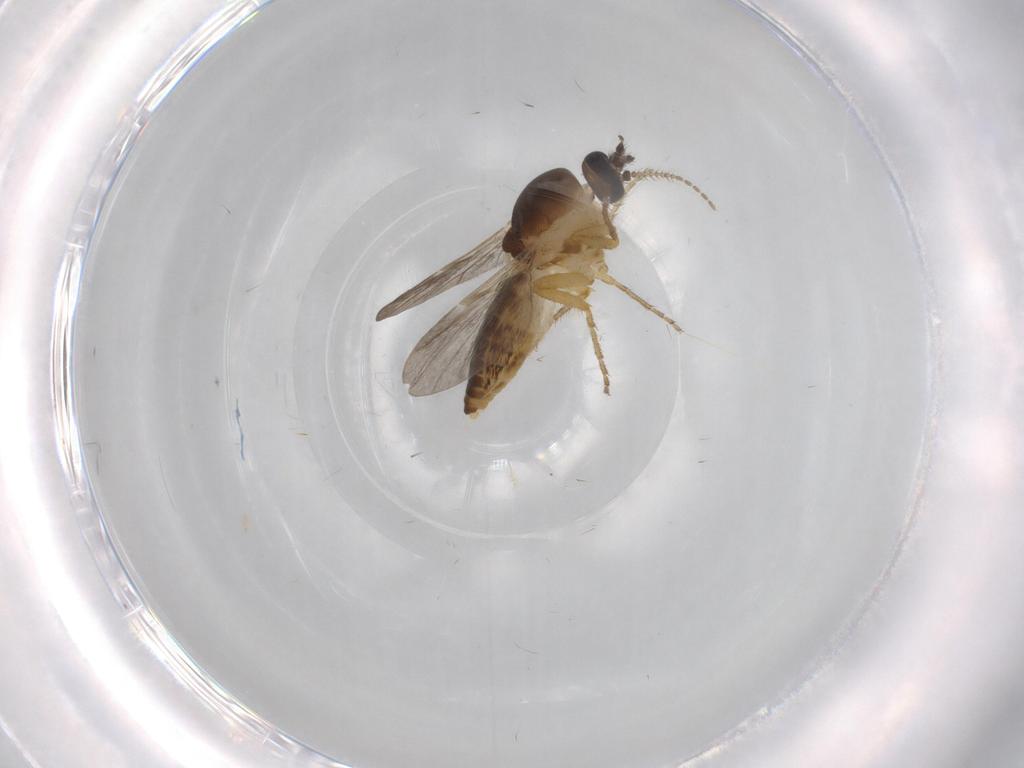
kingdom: Animalia
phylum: Arthropoda
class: Insecta
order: Diptera
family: Ceratopogonidae
